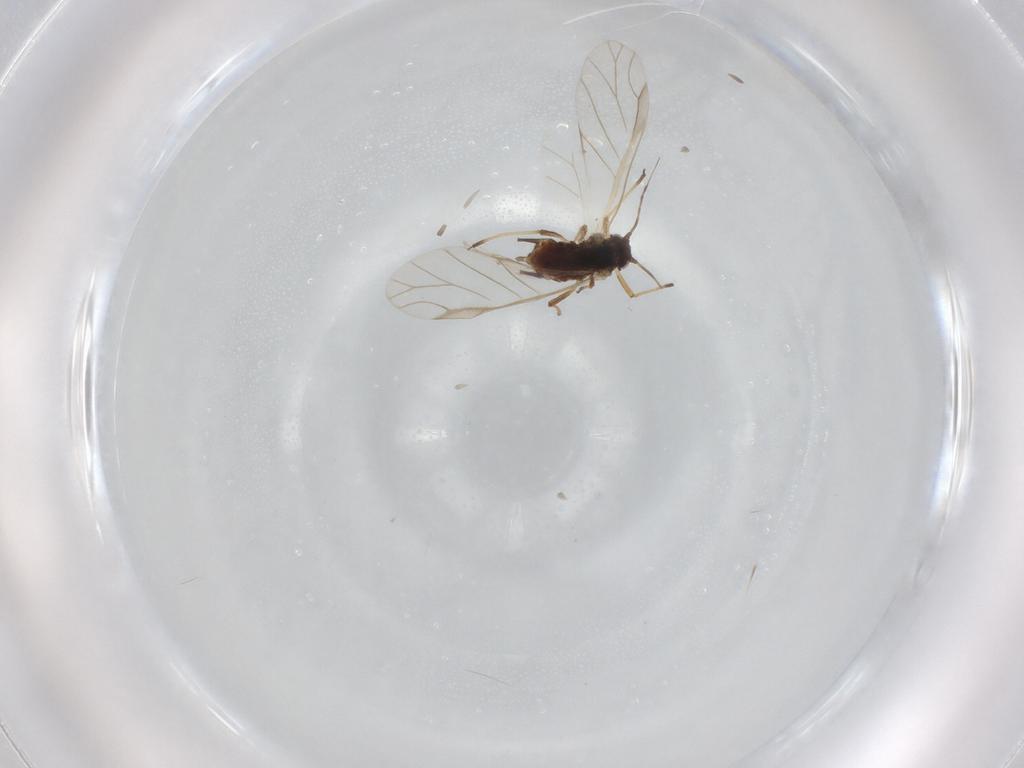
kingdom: Animalia
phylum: Arthropoda
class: Insecta
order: Hemiptera
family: Aphididae
